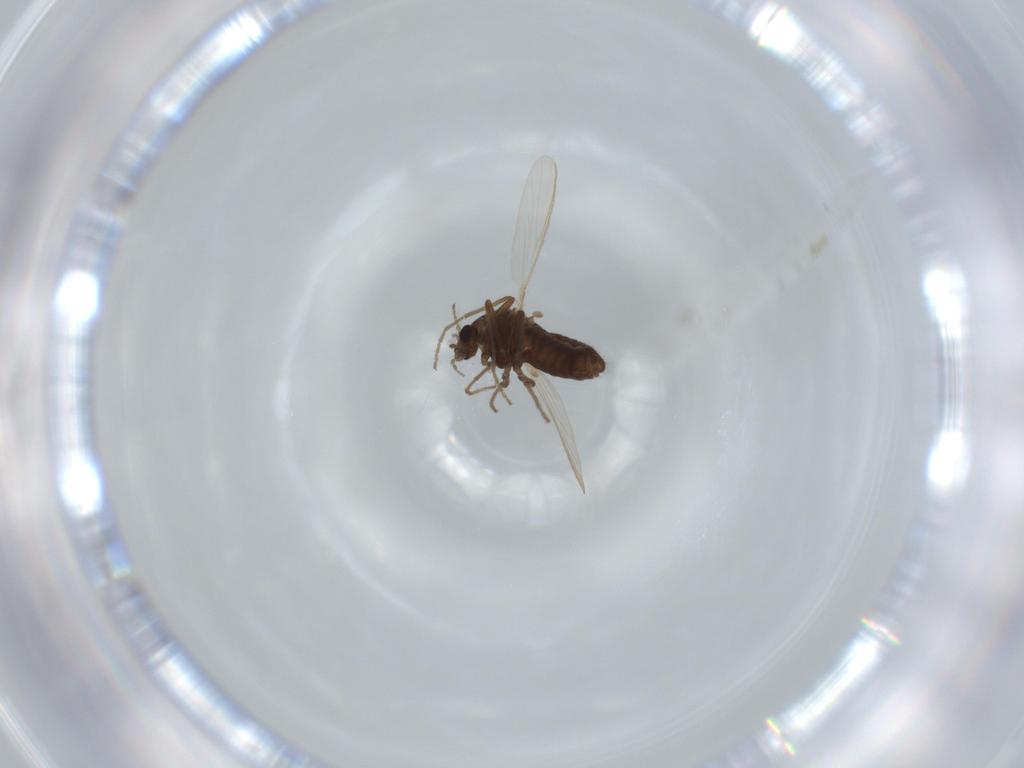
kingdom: Animalia
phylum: Arthropoda
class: Insecta
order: Diptera
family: Chironomidae
